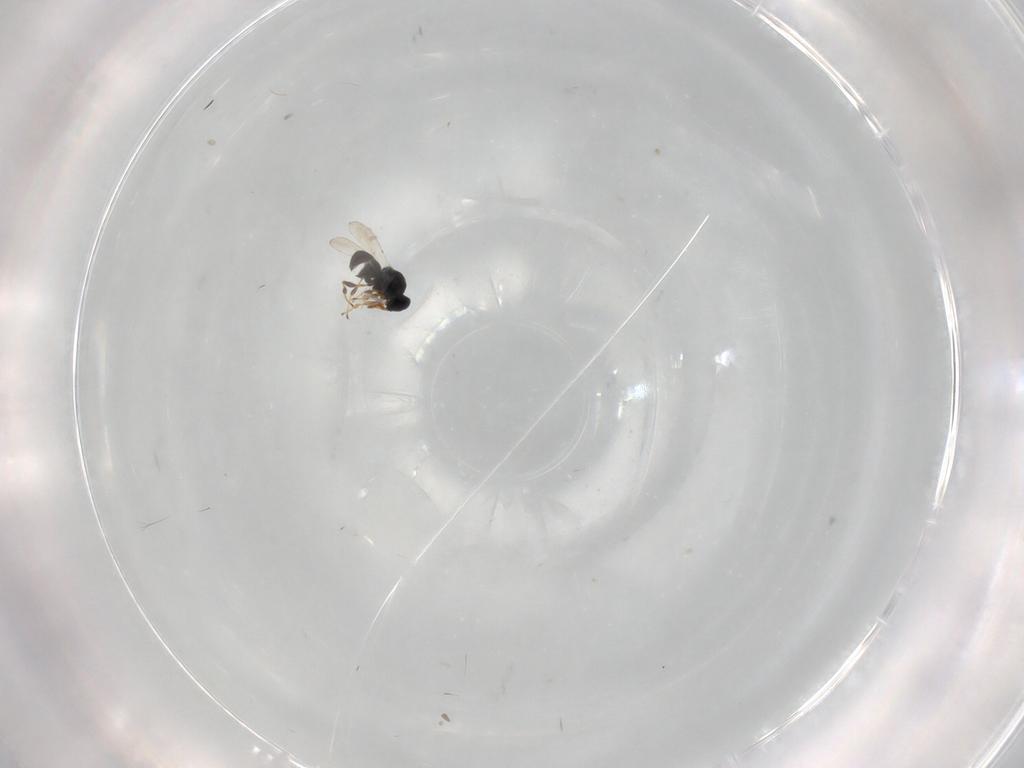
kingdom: Animalia
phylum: Arthropoda
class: Insecta
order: Hymenoptera
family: Platygastridae
